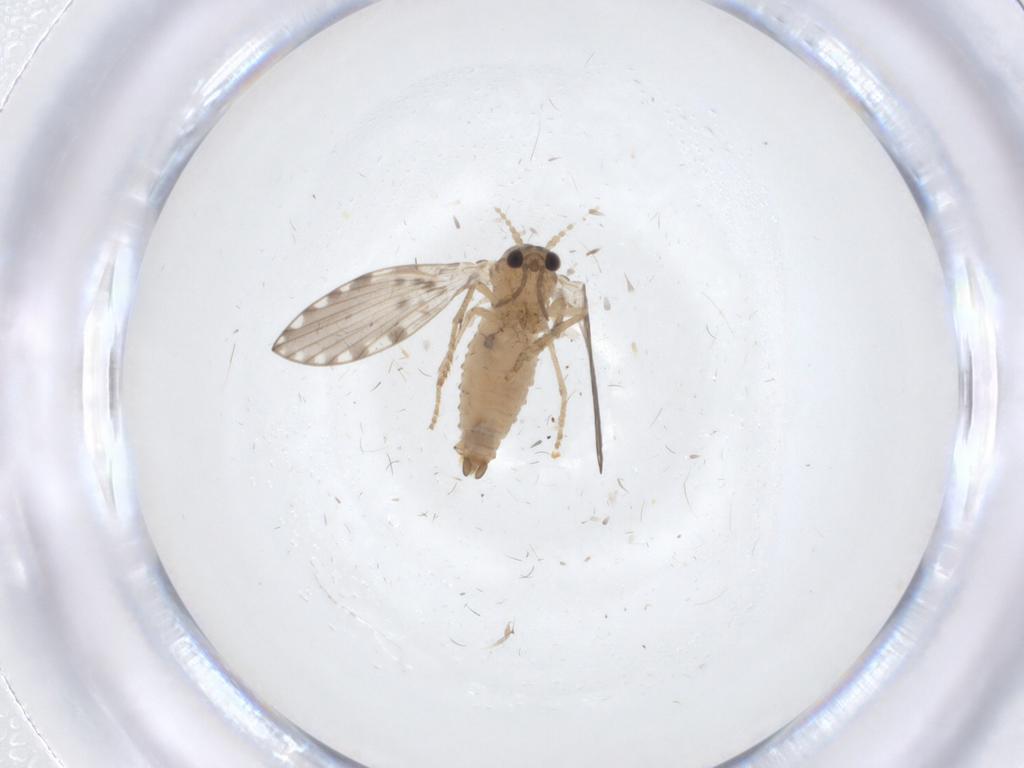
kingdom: Animalia
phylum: Arthropoda
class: Insecta
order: Diptera
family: Psychodidae
